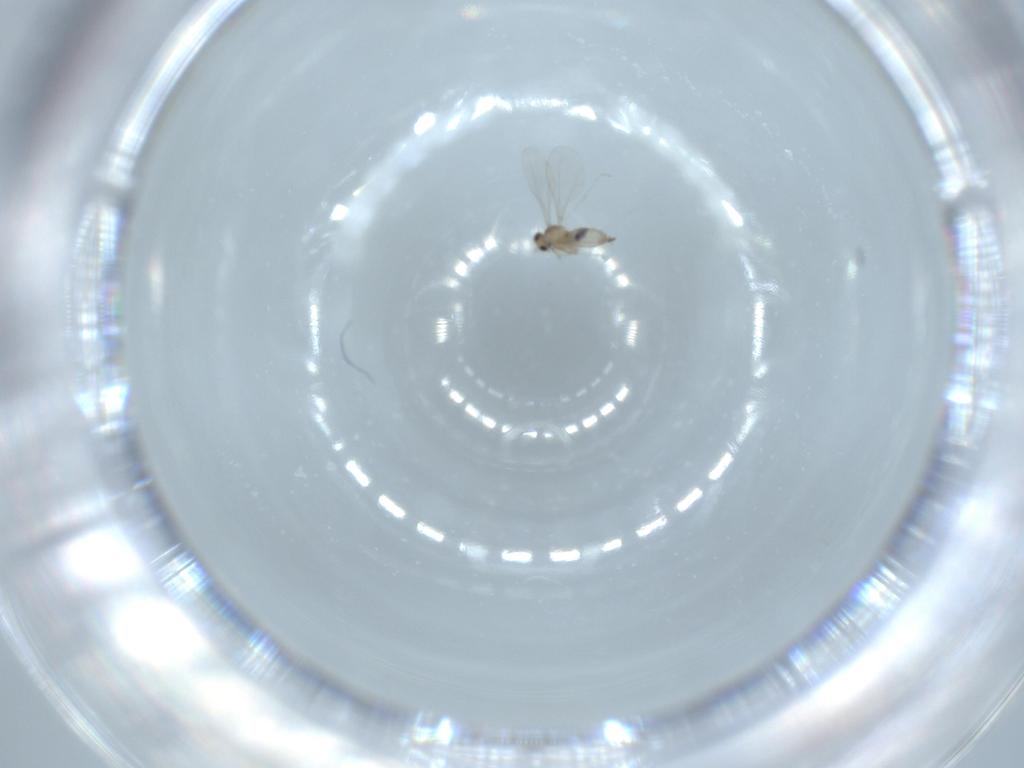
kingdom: Animalia
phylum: Arthropoda
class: Insecta
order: Diptera
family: Cecidomyiidae
